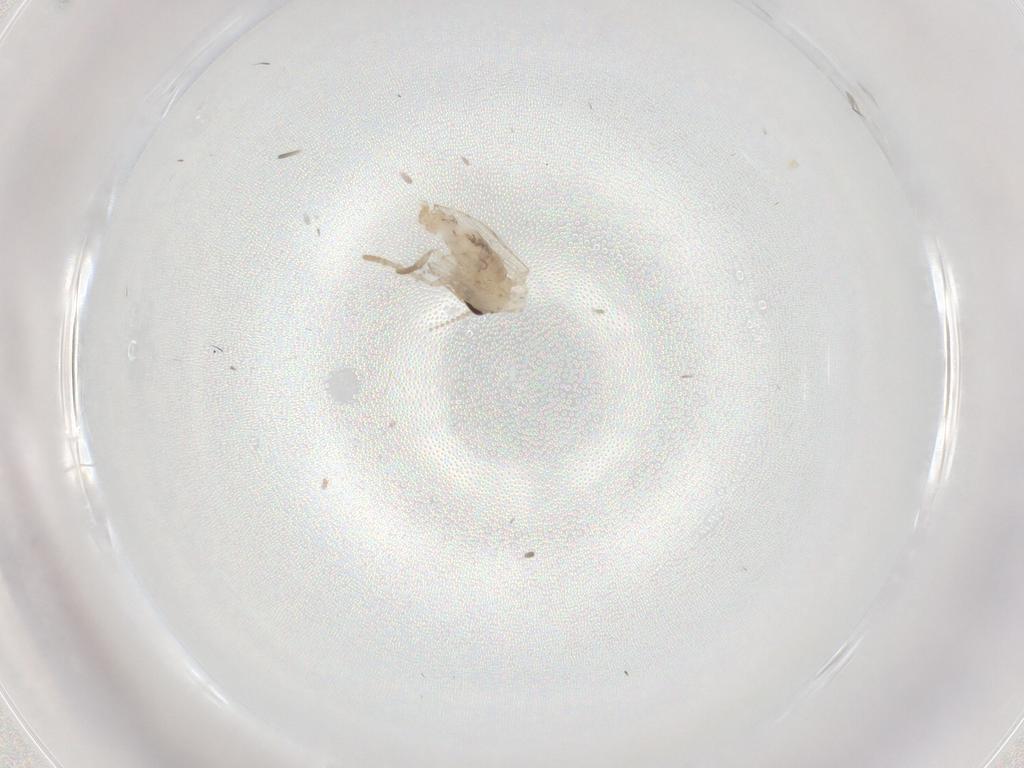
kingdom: Animalia
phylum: Arthropoda
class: Insecta
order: Diptera
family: Psychodidae
